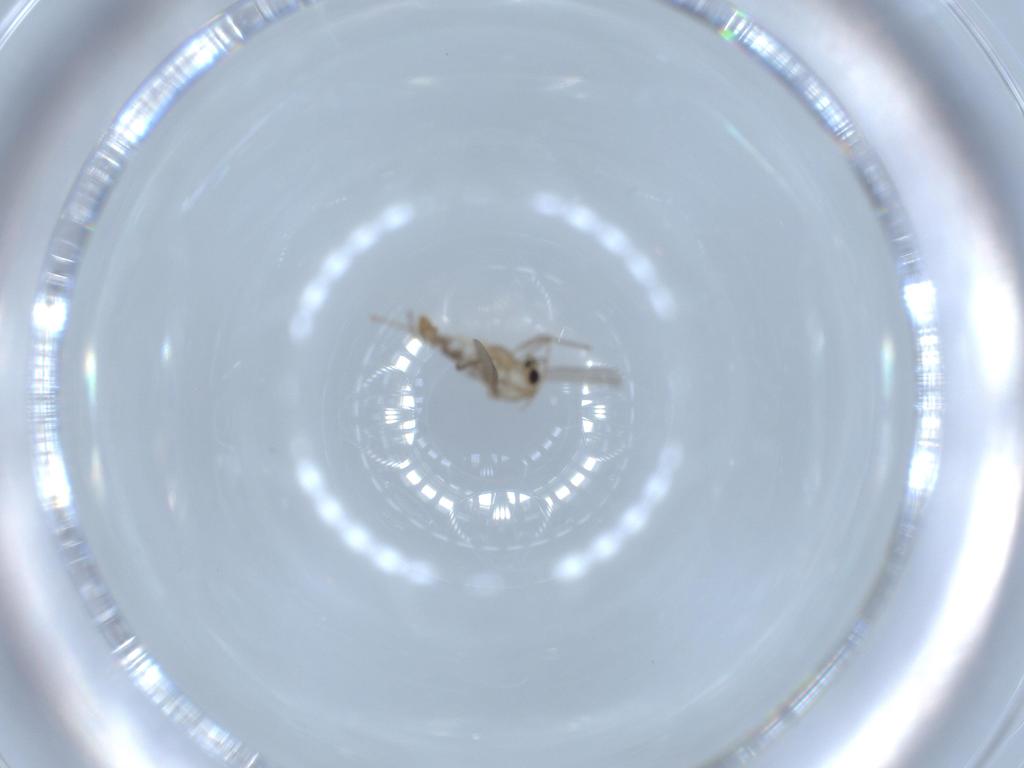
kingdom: Animalia
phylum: Arthropoda
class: Insecta
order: Diptera
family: Chironomidae
